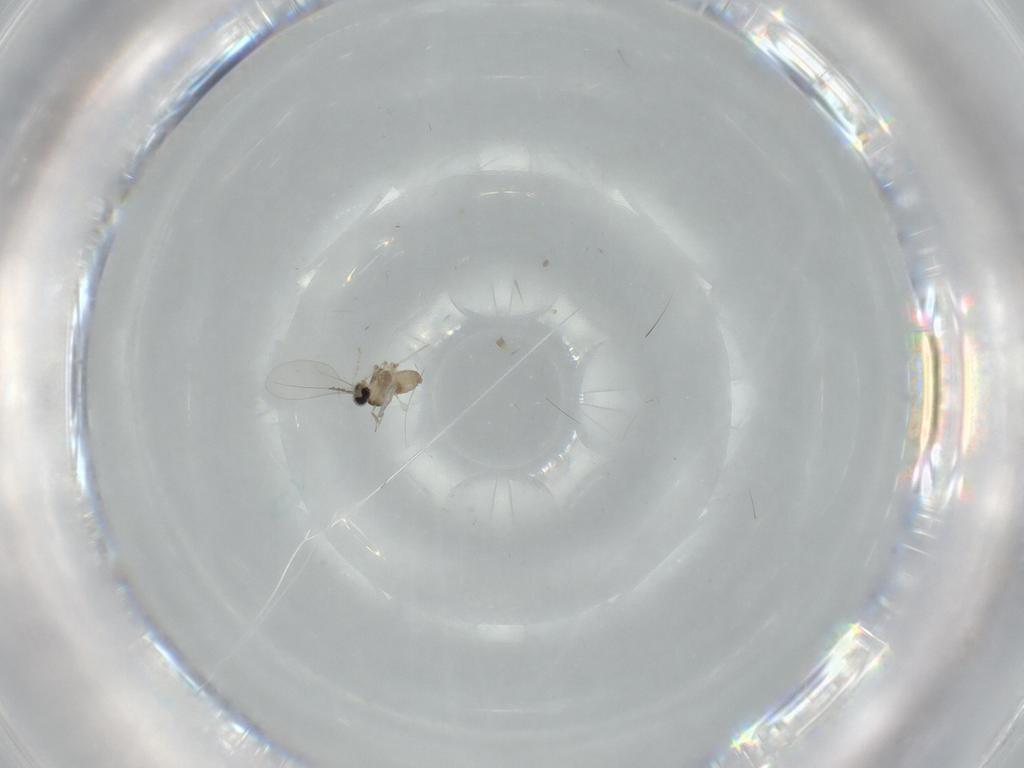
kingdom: Animalia
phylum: Arthropoda
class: Insecta
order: Diptera
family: Cecidomyiidae
